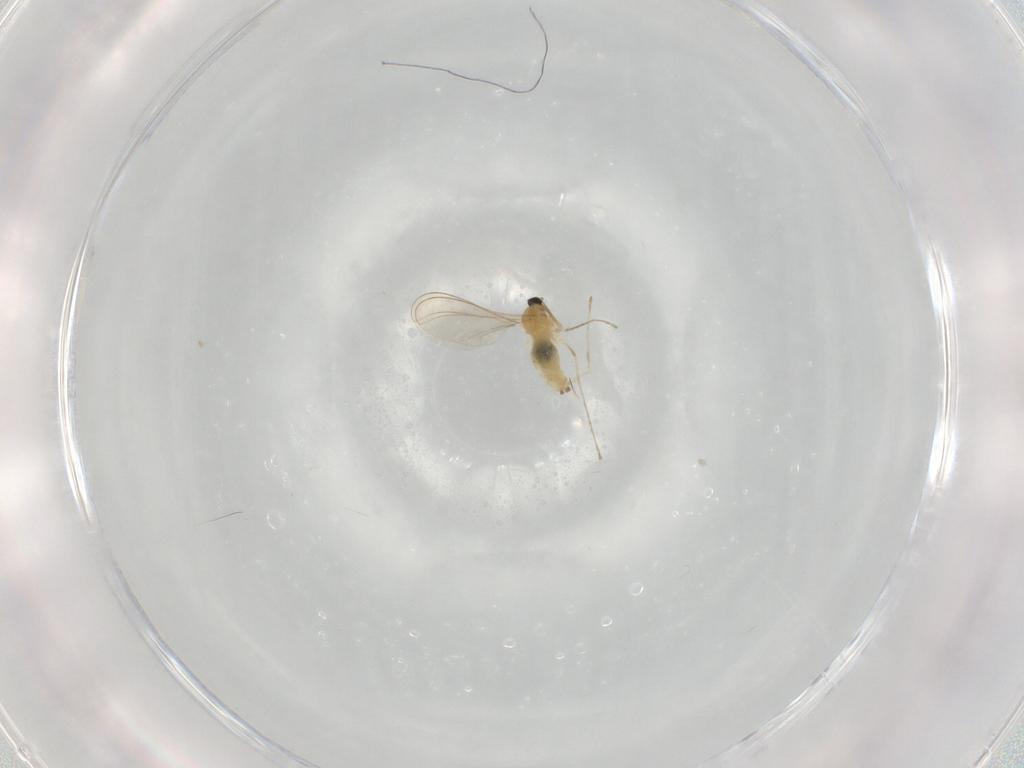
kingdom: Animalia
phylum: Arthropoda
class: Insecta
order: Diptera
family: Cecidomyiidae
